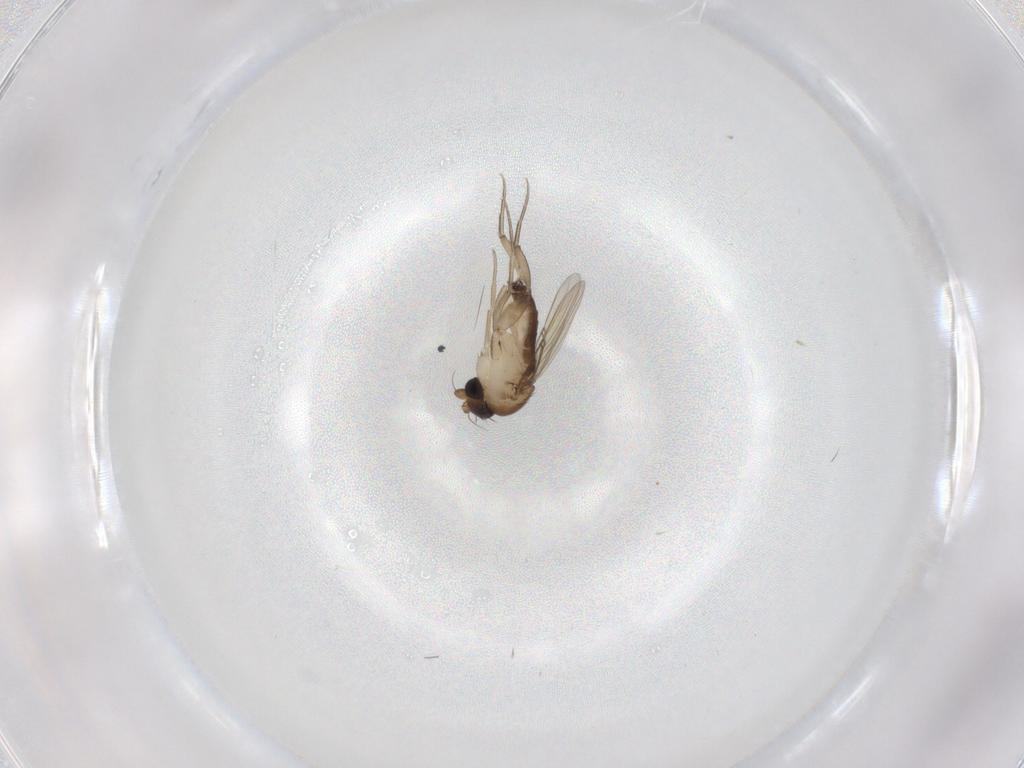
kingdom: Animalia
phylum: Arthropoda
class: Insecta
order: Diptera
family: Phoridae
